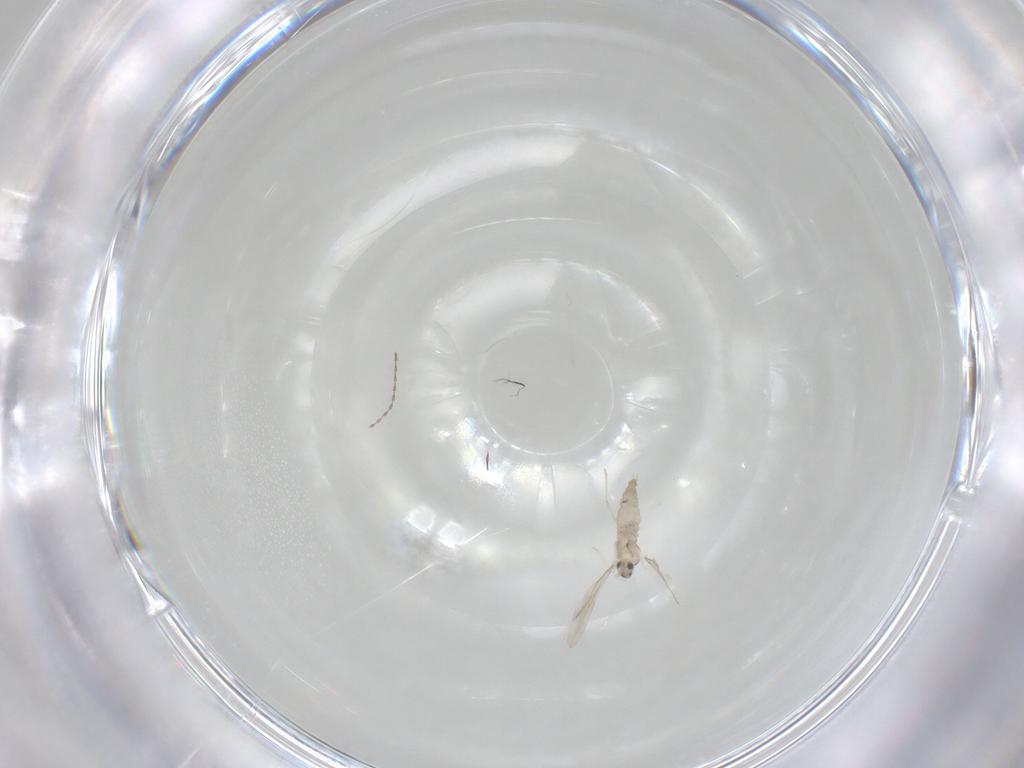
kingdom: Animalia
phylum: Arthropoda
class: Insecta
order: Diptera
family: Cecidomyiidae
